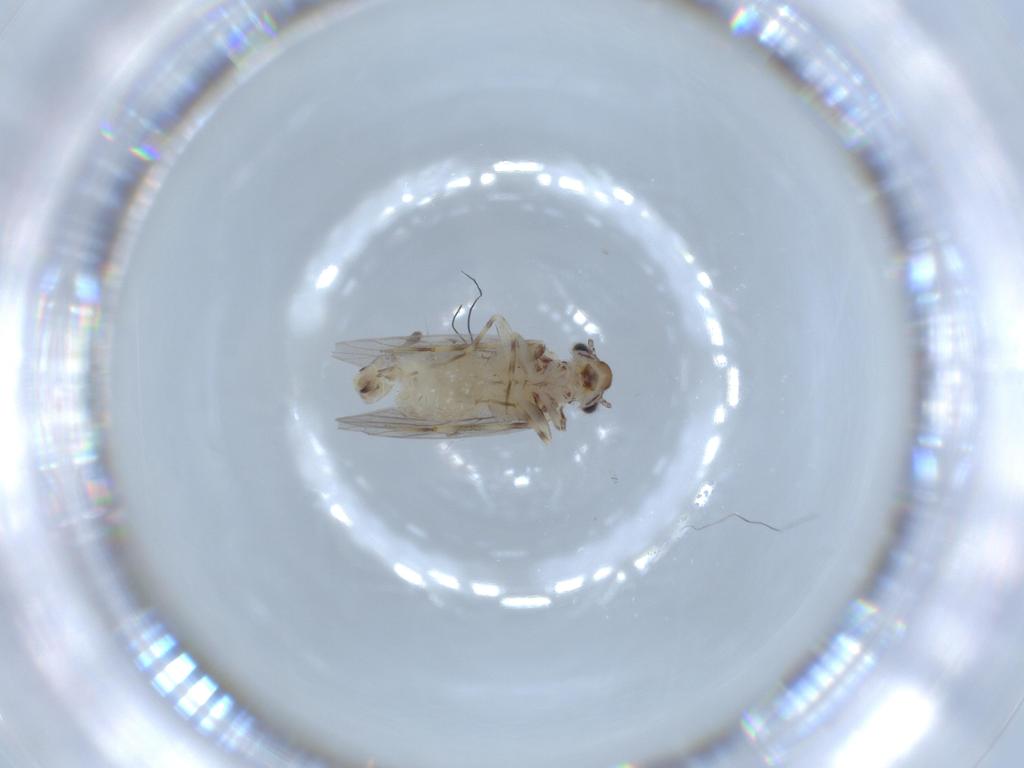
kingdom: Animalia
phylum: Arthropoda
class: Insecta
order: Psocodea
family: Lepidopsocidae
